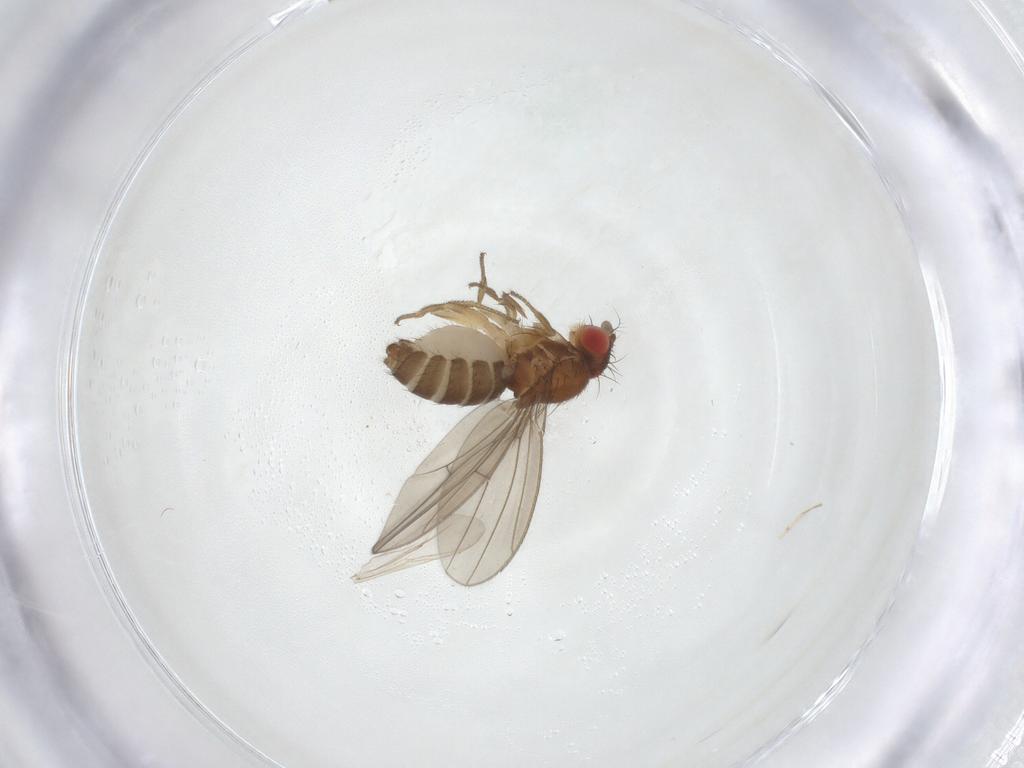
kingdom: Animalia
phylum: Arthropoda
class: Insecta
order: Diptera
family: Drosophilidae
